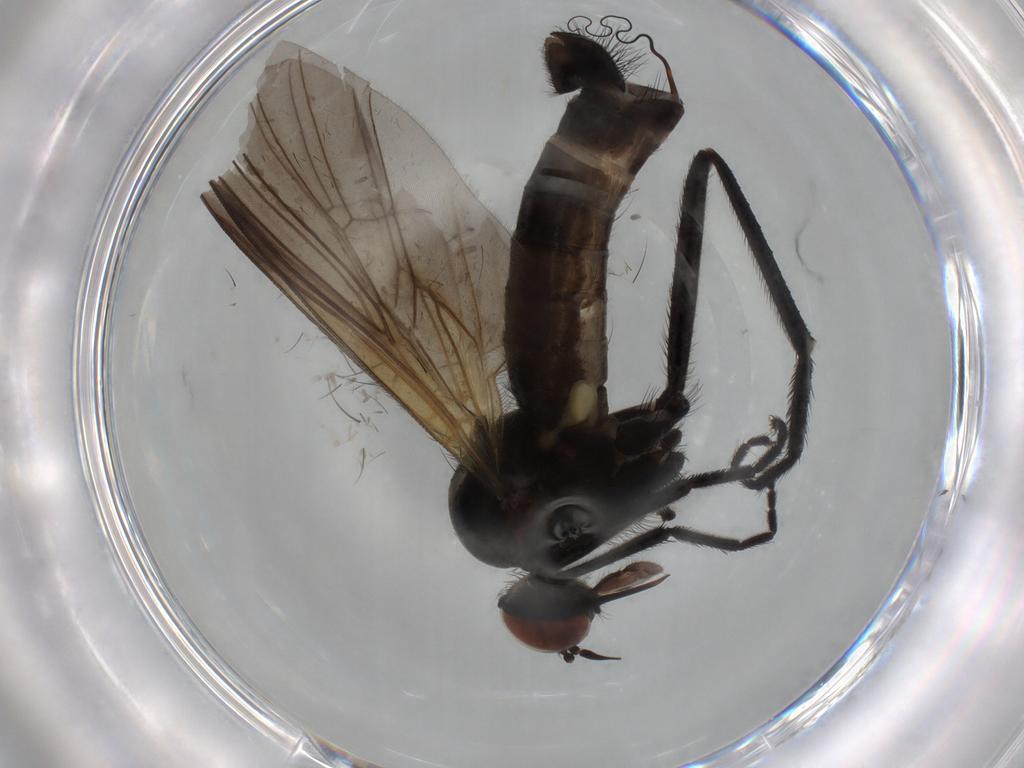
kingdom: Animalia
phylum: Arthropoda
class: Insecta
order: Diptera
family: Empididae
